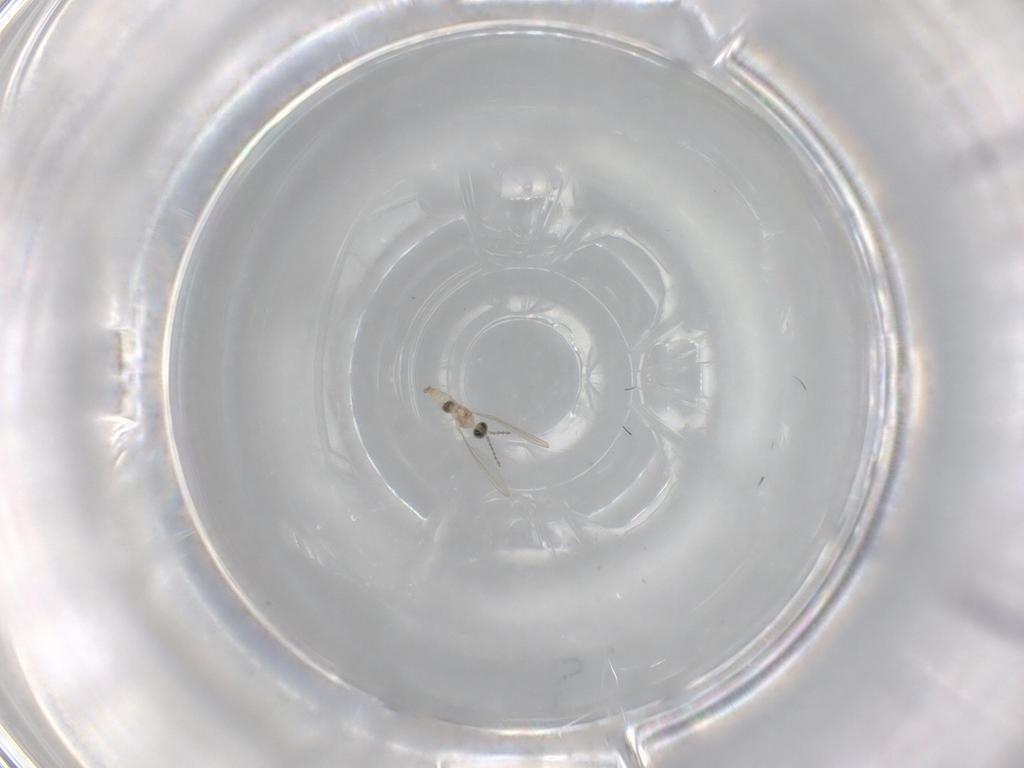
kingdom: Animalia
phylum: Arthropoda
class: Insecta
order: Diptera
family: Cecidomyiidae
